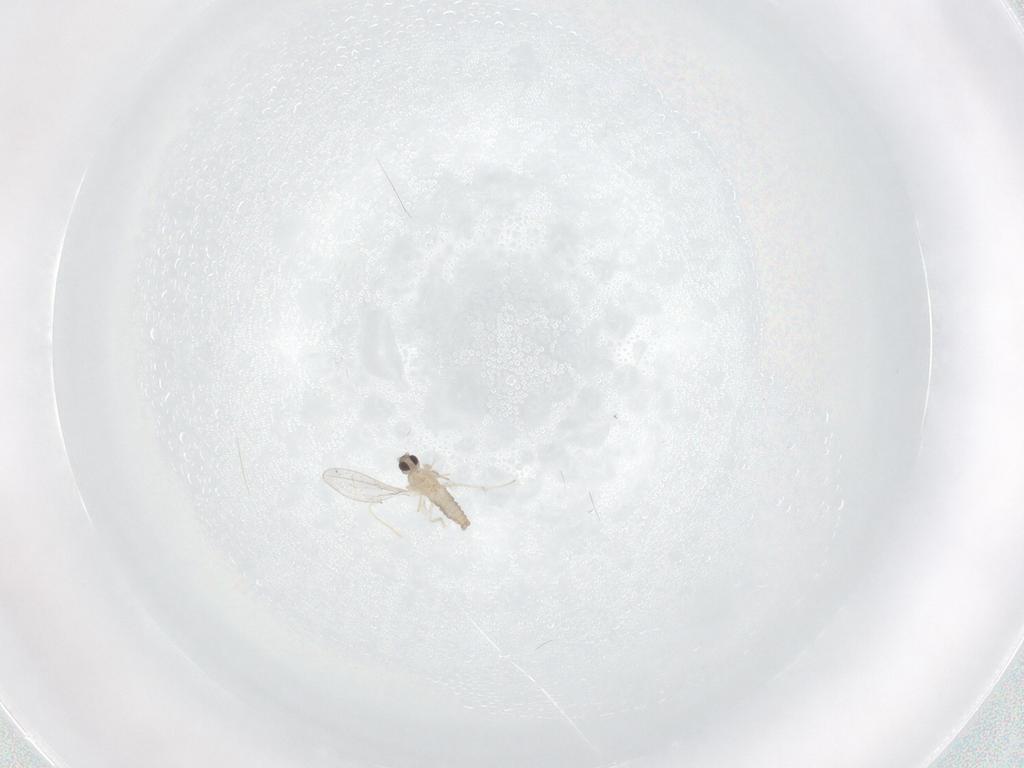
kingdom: Animalia
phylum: Arthropoda
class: Insecta
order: Diptera
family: Cecidomyiidae
